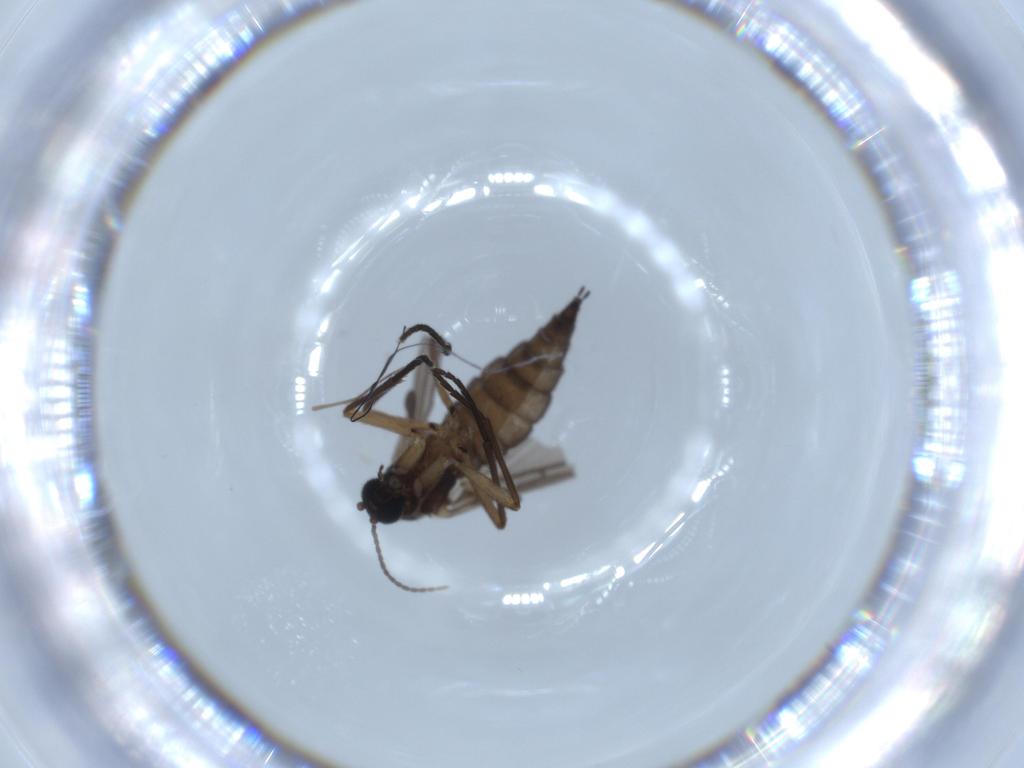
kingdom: Animalia
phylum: Arthropoda
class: Insecta
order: Diptera
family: Sciaridae
